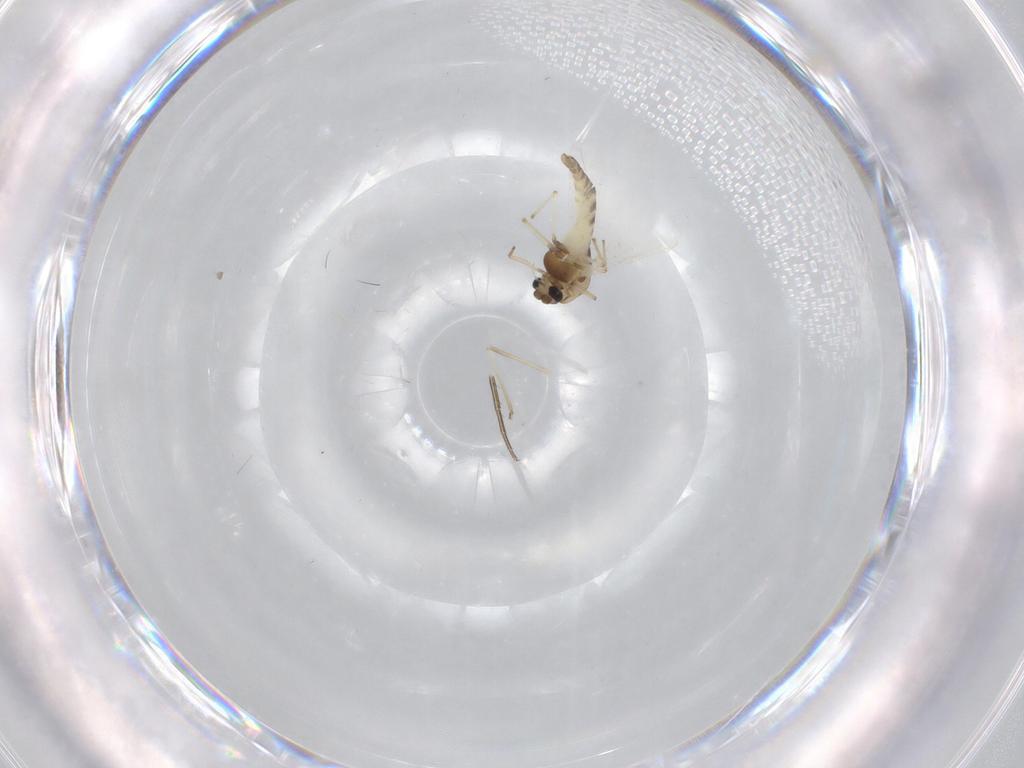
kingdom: Animalia
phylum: Arthropoda
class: Insecta
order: Diptera
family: Chironomidae
